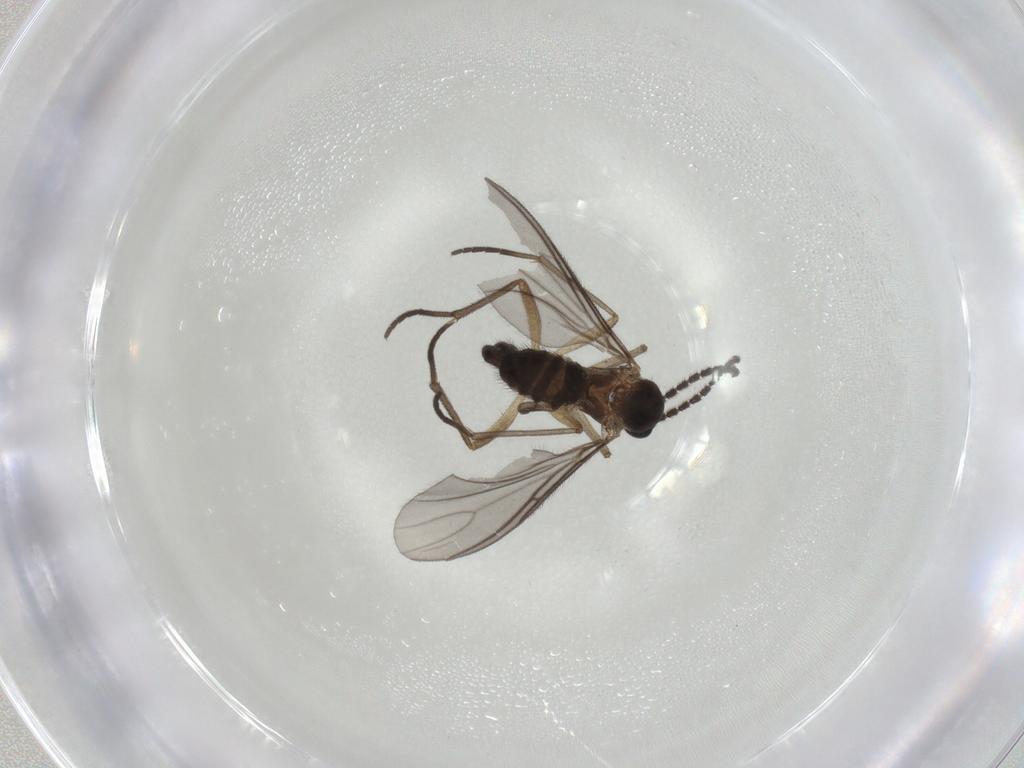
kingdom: Animalia
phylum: Arthropoda
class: Insecta
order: Diptera
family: Sciaridae
